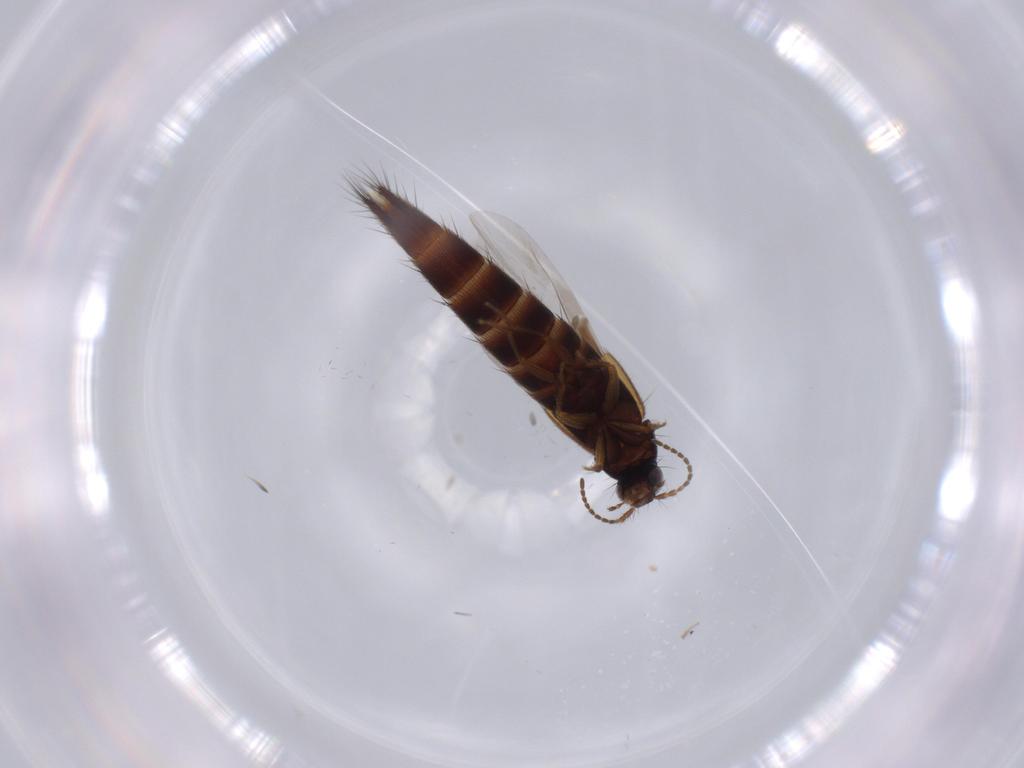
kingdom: Animalia
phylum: Arthropoda
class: Insecta
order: Coleoptera
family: Staphylinidae
